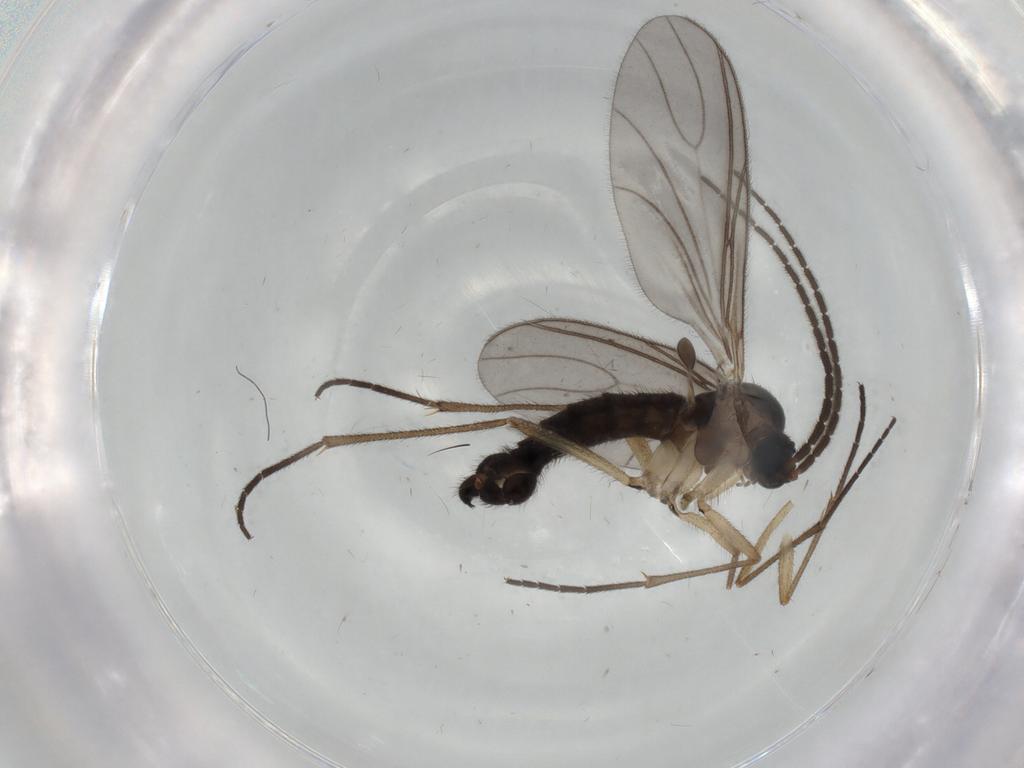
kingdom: Animalia
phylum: Arthropoda
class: Insecta
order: Diptera
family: Sciaridae
